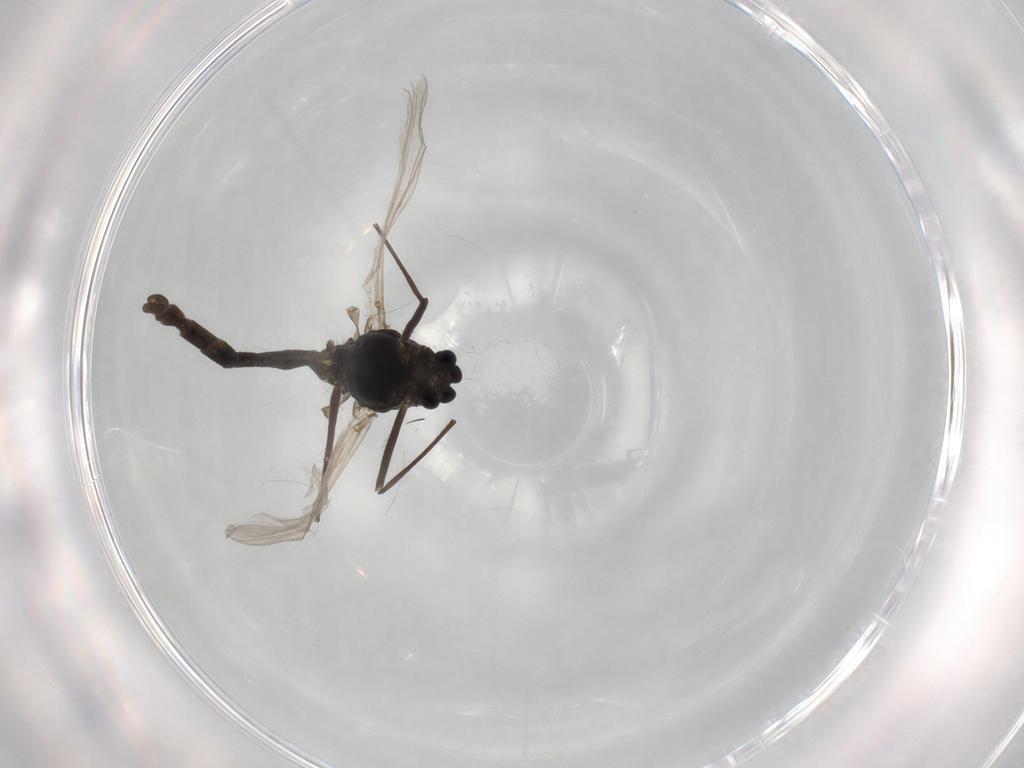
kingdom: Animalia
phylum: Arthropoda
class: Insecta
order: Diptera
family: Chironomidae
